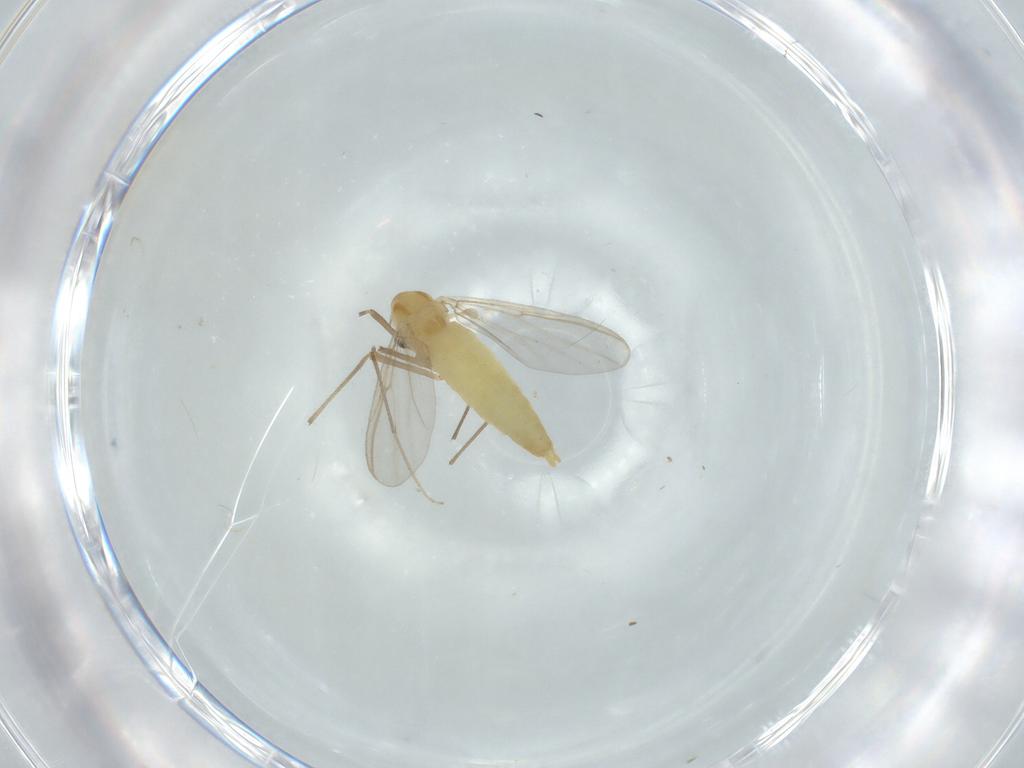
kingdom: Animalia
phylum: Arthropoda
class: Insecta
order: Diptera
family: Chironomidae
